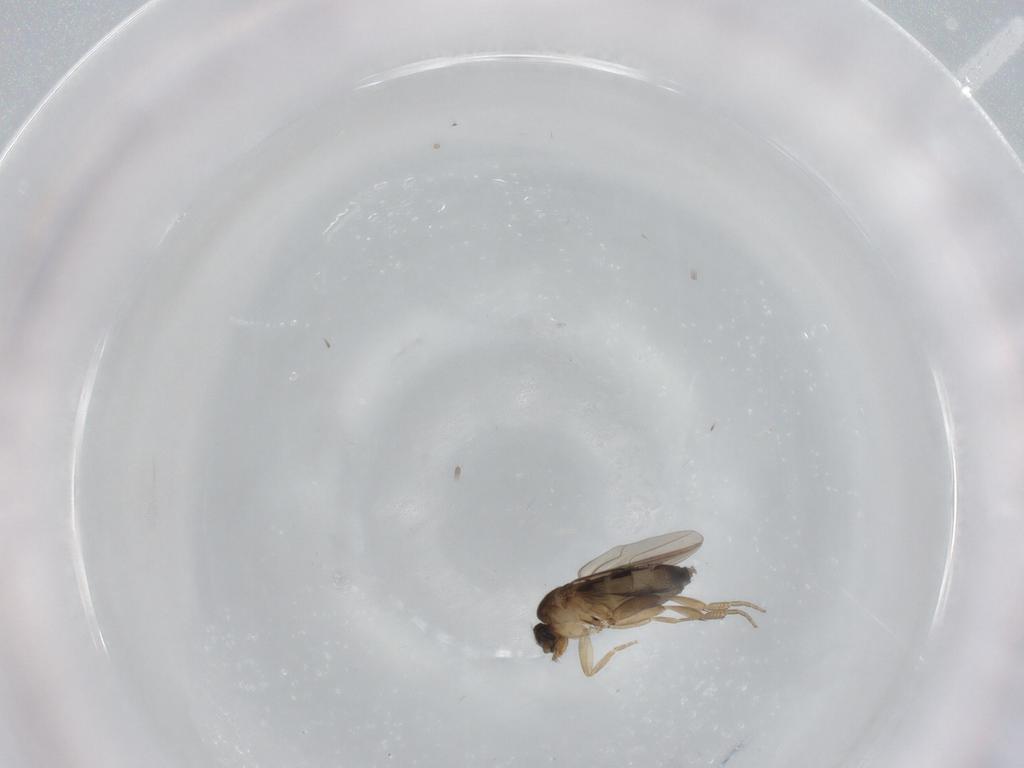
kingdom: Animalia
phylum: Arthropoda
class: Insecta
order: Diptera
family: Phoridae
